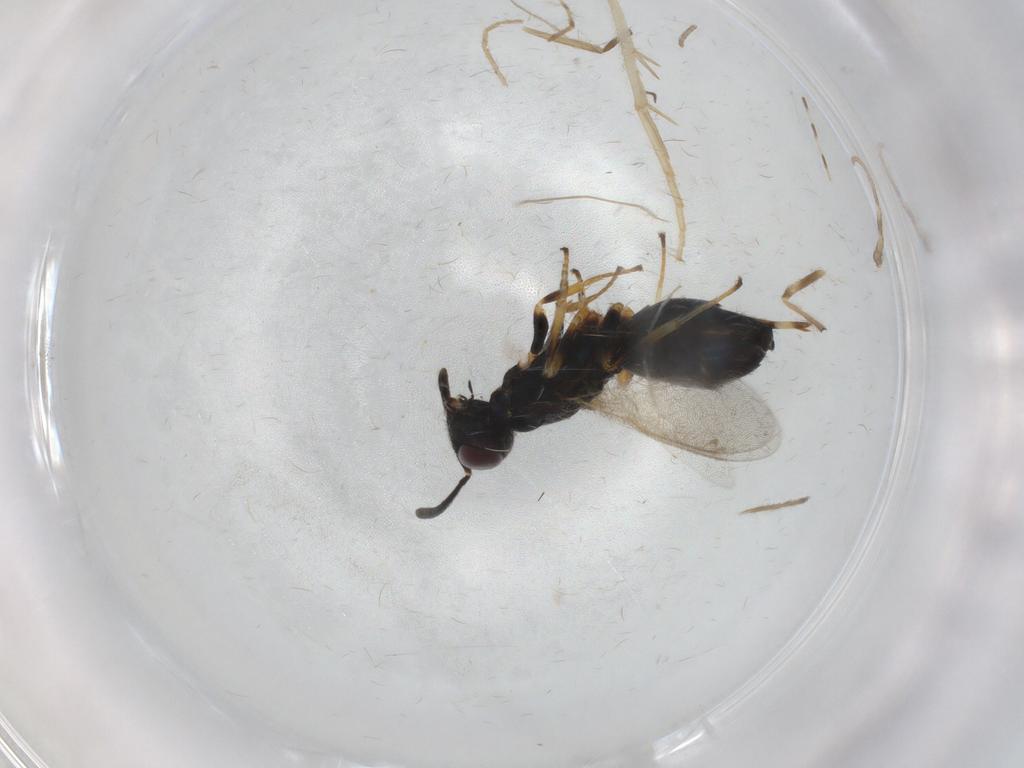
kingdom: Animalia
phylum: Arthropoda
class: Insecta
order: Hymenoptera
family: Eupelmidae
